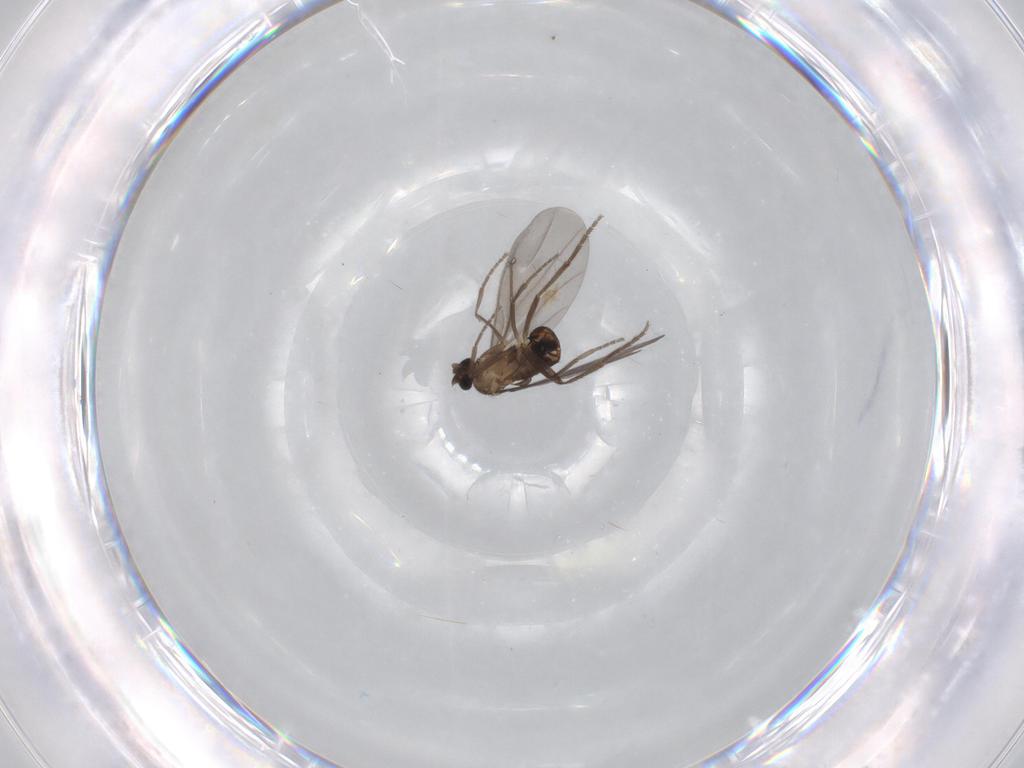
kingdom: Animalia
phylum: Arthropoda
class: Insecta
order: Diptera
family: Phoridae
